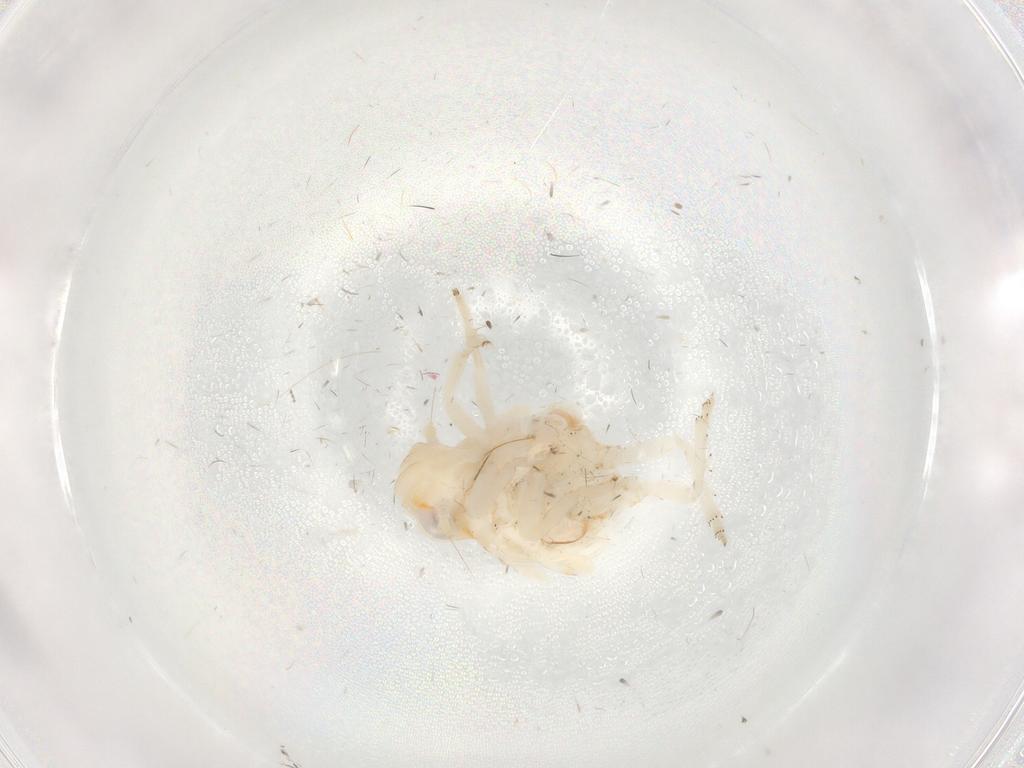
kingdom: Animalia
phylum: Arthropoda
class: Insecta
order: Hemiptera
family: Nogodinidae
